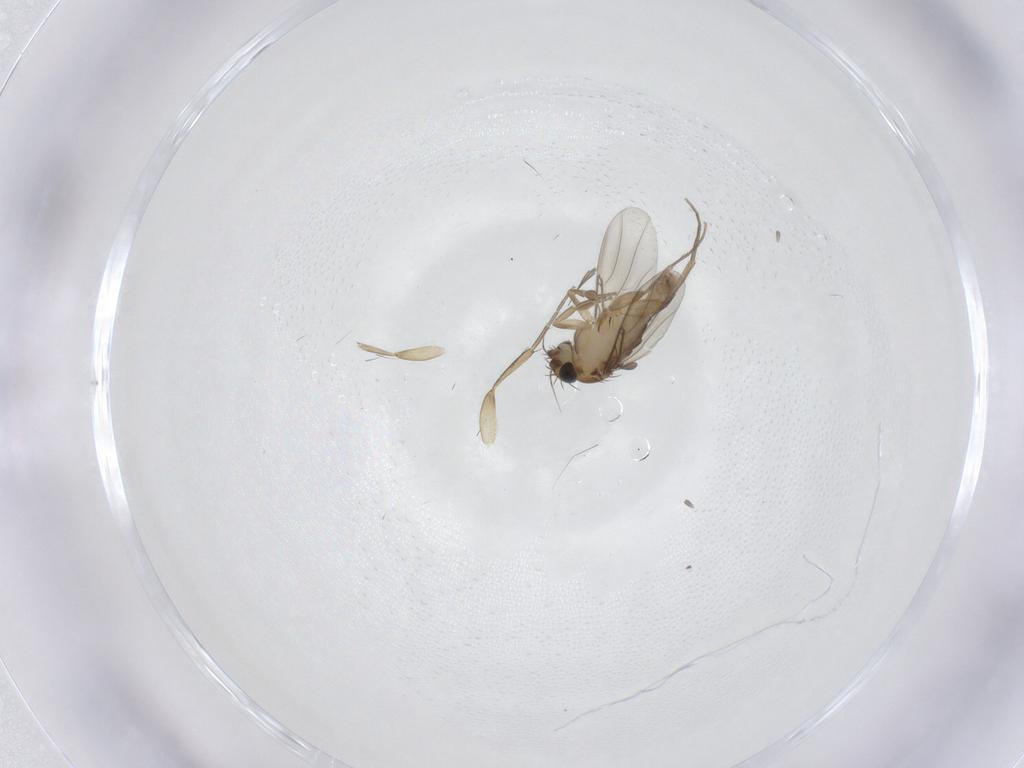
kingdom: Animalia
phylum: Arthropoda
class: Insecta
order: Diptera
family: Phoridae
